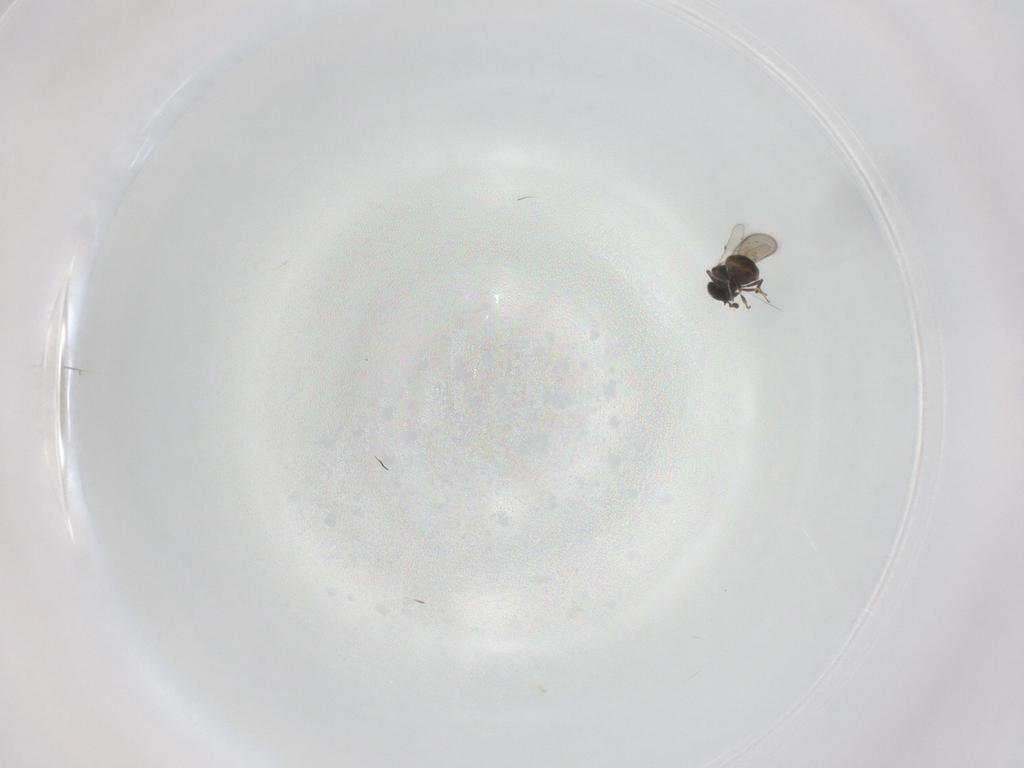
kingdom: Animalia
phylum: Arthropoda
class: Insecta
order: Hymenoptera
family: Scelionidae
